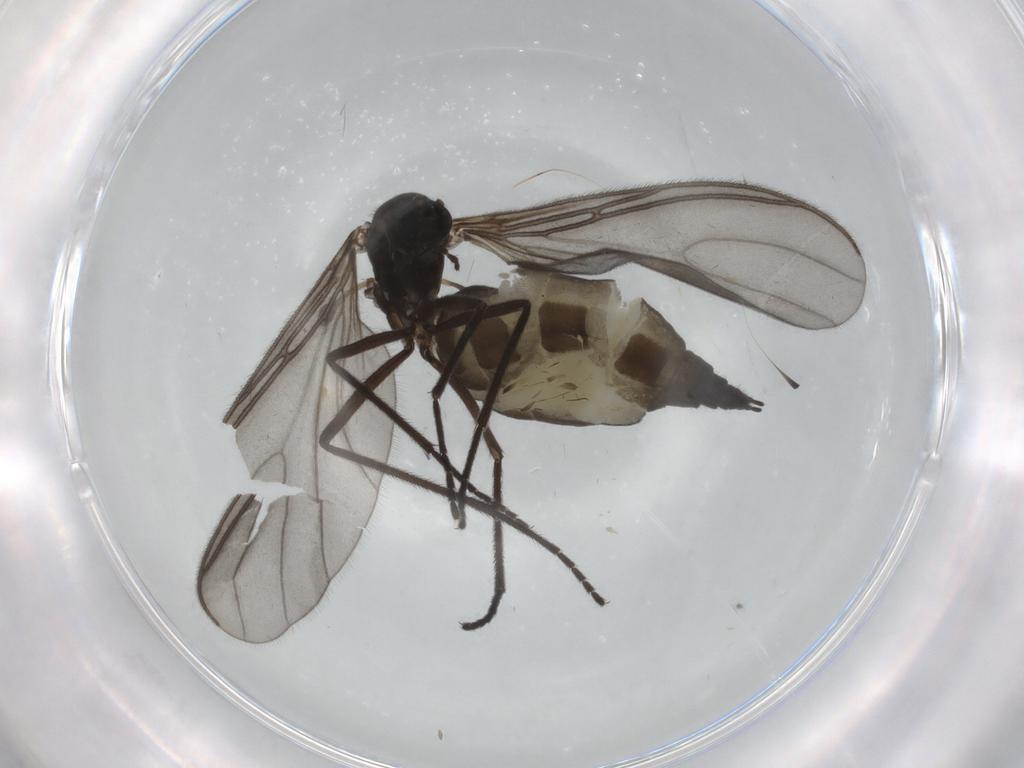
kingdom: Animalia
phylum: Arthropoda
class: Insecta
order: Diptera
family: Sciaridae
